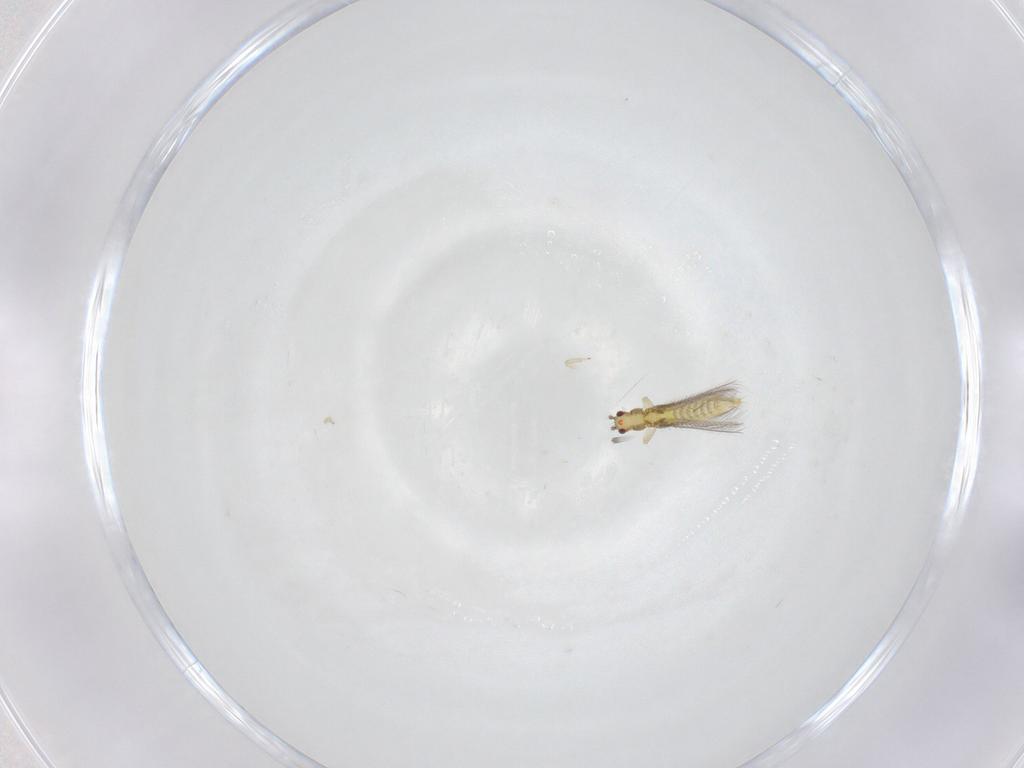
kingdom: Animalia
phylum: Arthropoda
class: Insecta
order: Thysanoptera
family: Thripidae
